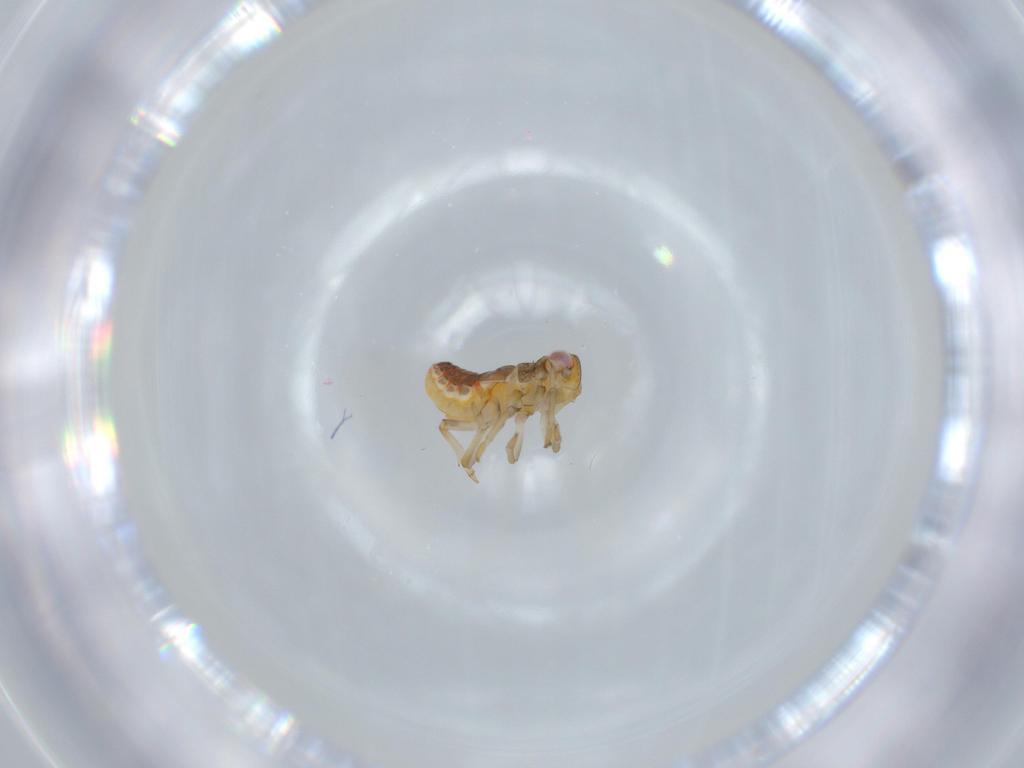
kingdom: Animalia
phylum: Arthropoda
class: Insecta
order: Hemiptera
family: Issidae
